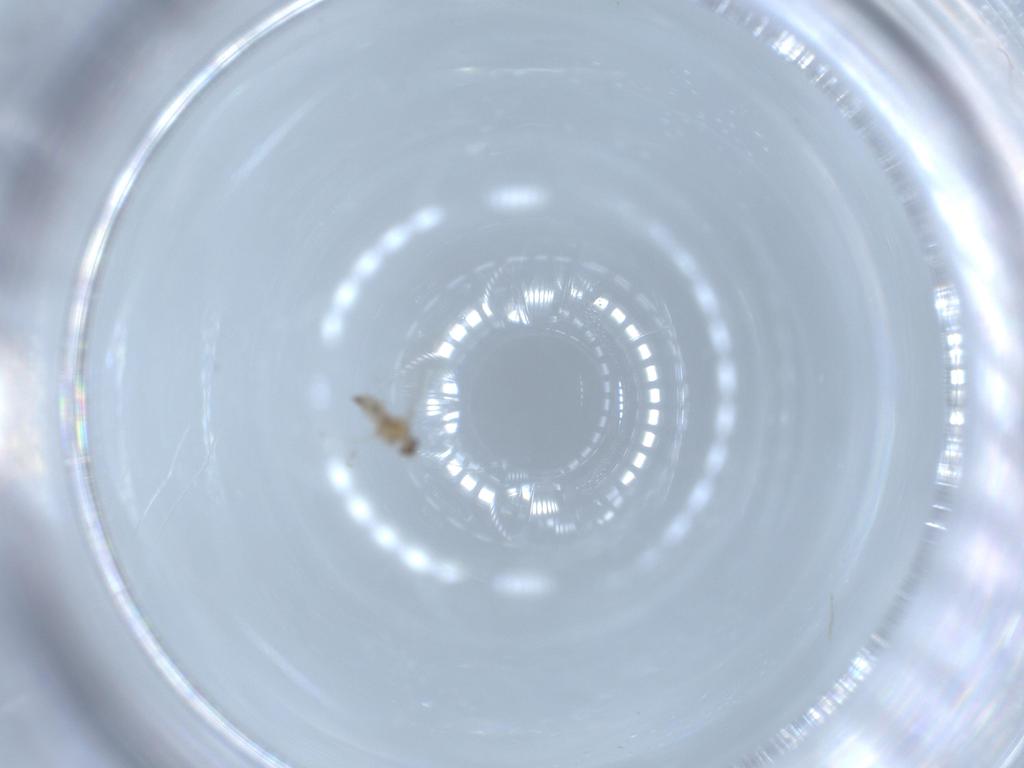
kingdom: Animalia
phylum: Arthropoda
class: Insecta
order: Diptera
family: Cecidomyiidae
